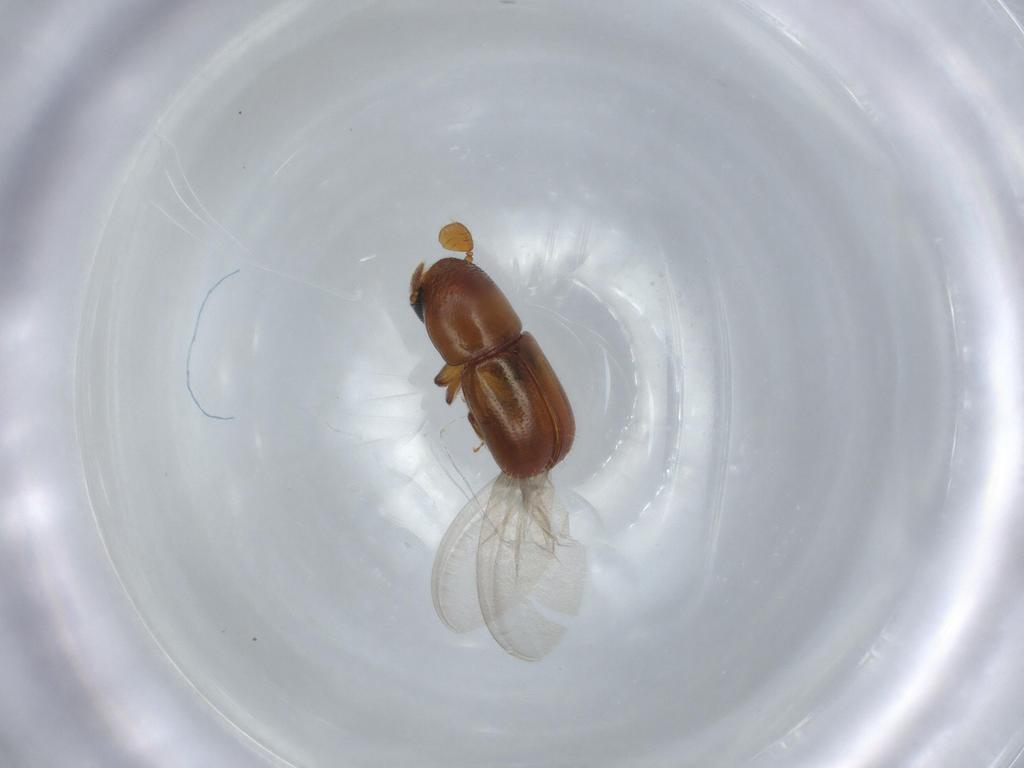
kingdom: Animalia
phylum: Arthropoda
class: Insecta
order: Coleoptera
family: Curculionidae
